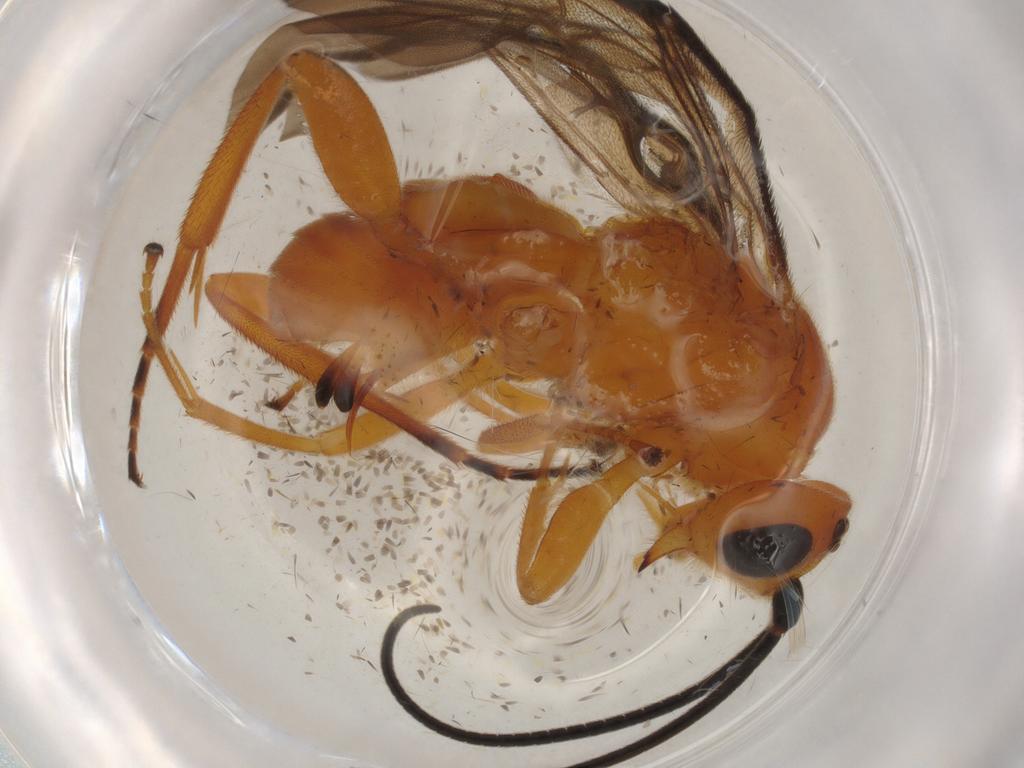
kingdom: Animalia
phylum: Arthropoda
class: Insecta
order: Hymenoptera
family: Braconidae
